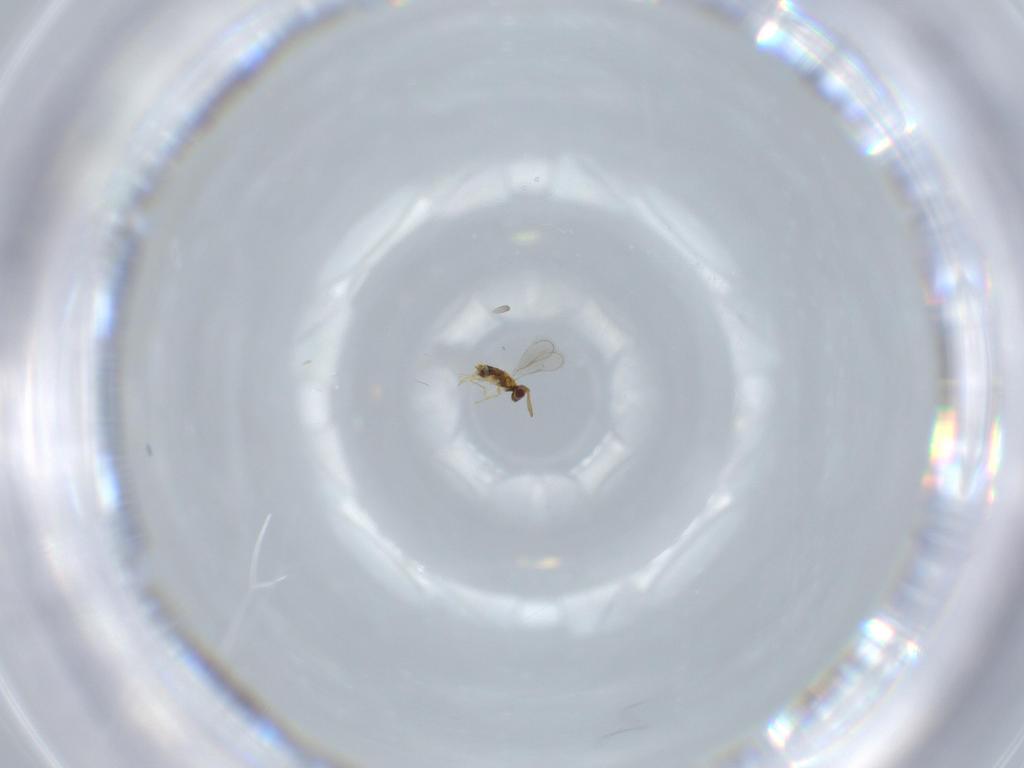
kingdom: Animalia
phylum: Arthropoda
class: Insecta
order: Hymenoptera
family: Aphelinidae
